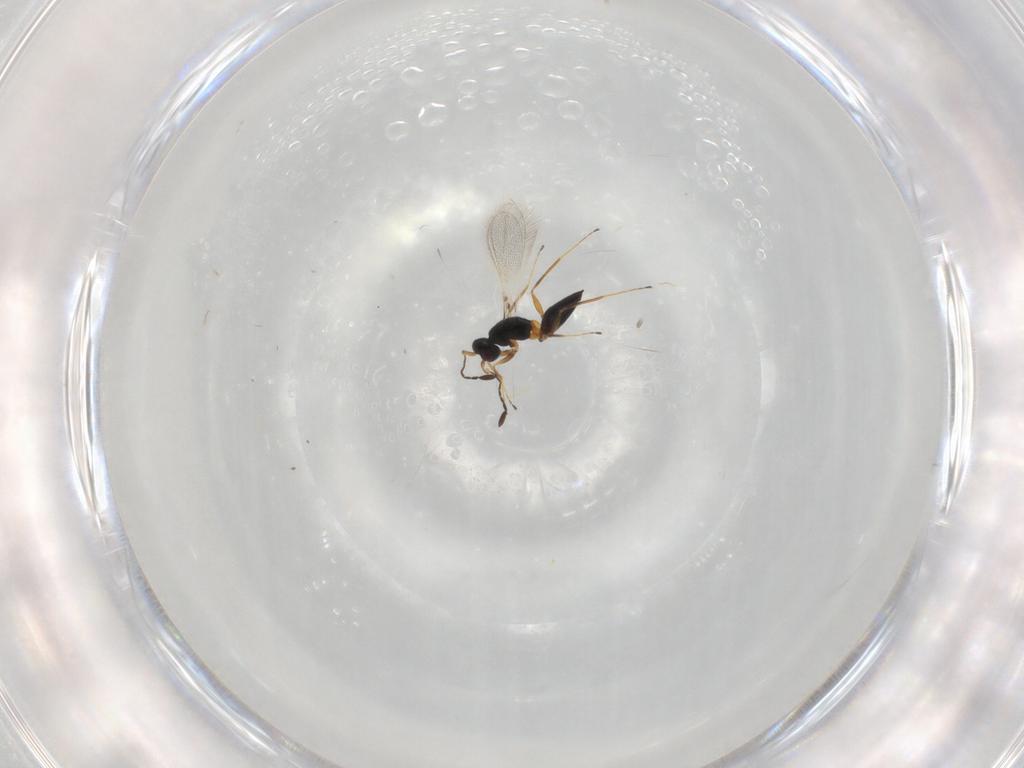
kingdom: Animalia
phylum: Arthropoda
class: Insecta
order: Hymenoptera
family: Mymaridae
